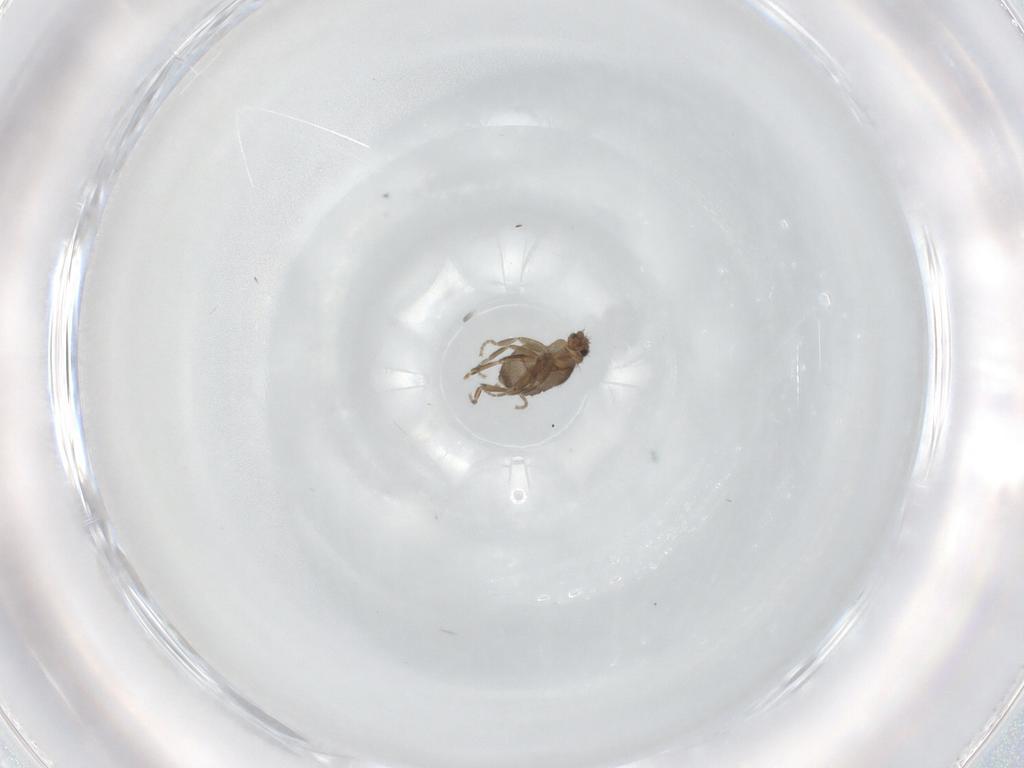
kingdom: Animalia
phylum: Arthropoda
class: Insecta
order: Diptera
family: Phoridae
